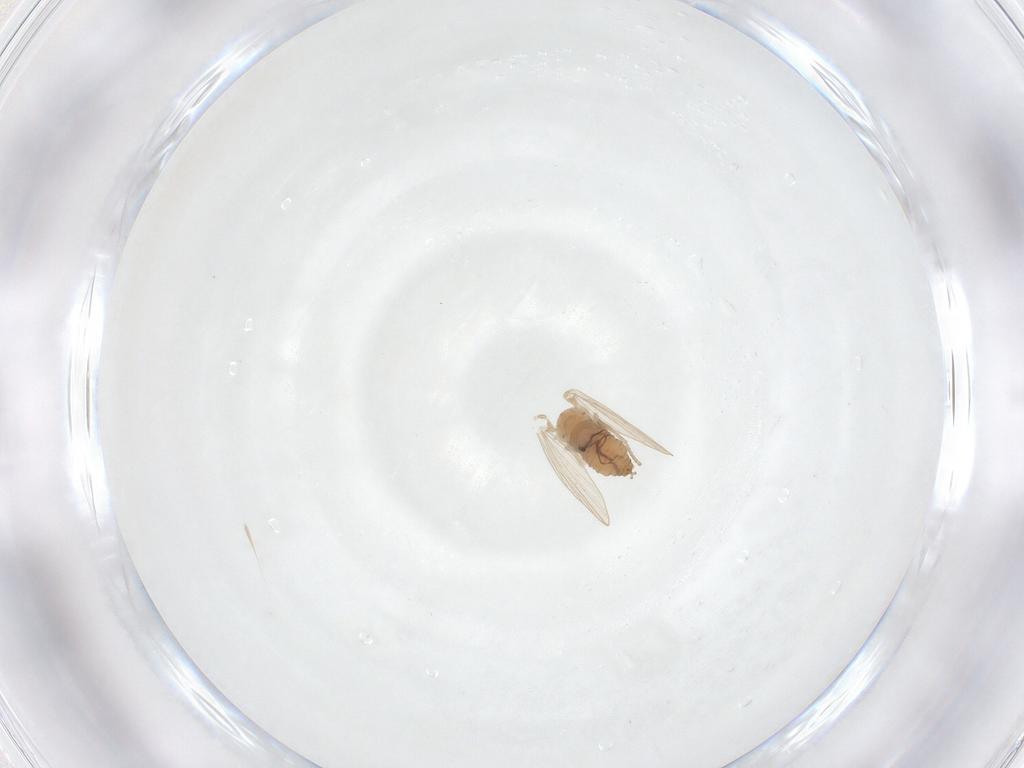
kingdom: Animalia
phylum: Arthropoda
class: Insecta
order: Diptera
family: Psychodidae
